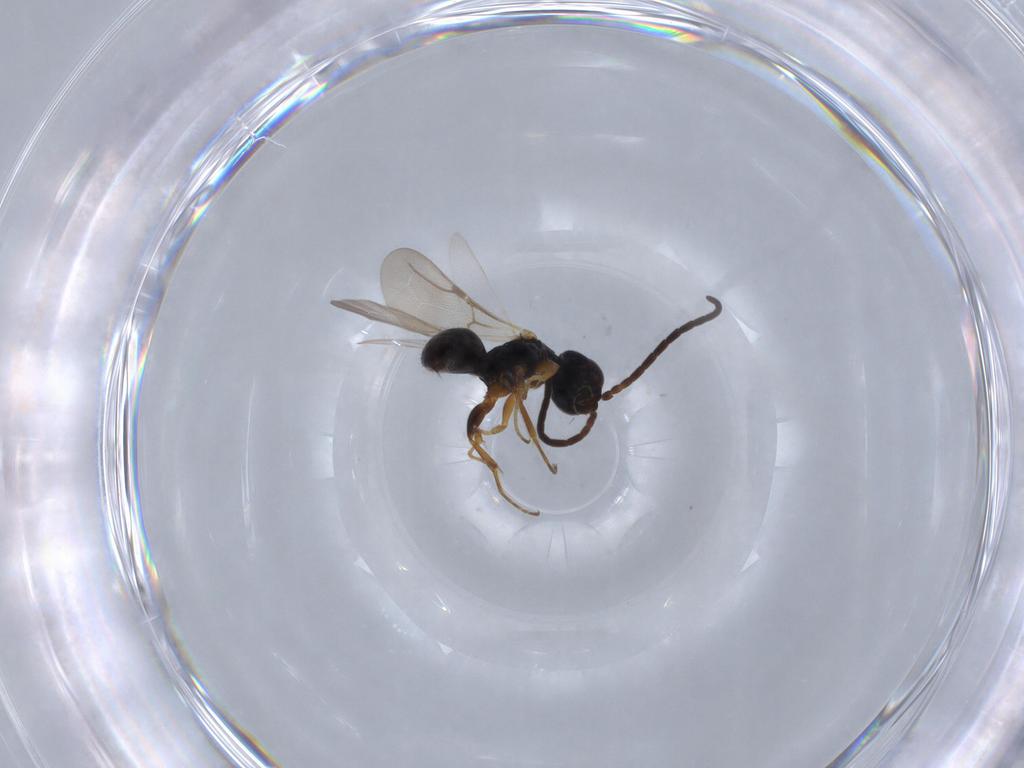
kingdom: Animalia
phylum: Arthropoda
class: Insecta
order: Hymenoptera
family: Bethylidae
